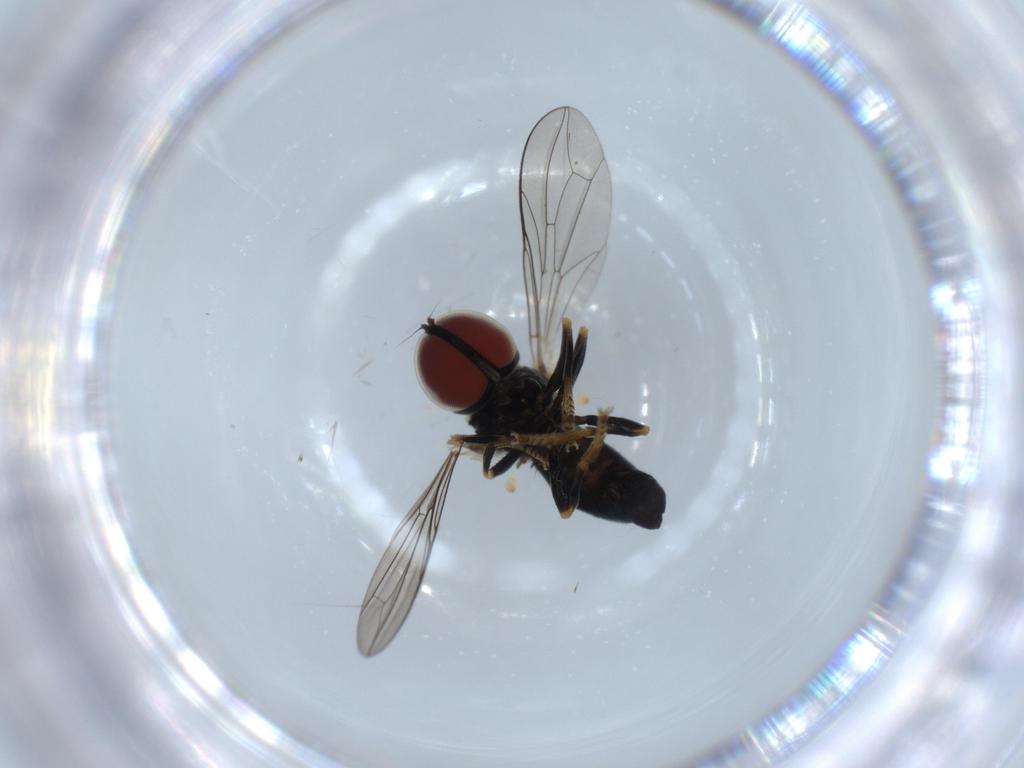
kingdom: Animalia
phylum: Arthropoda
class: Insecta
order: Diptera
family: Pipunculidae
